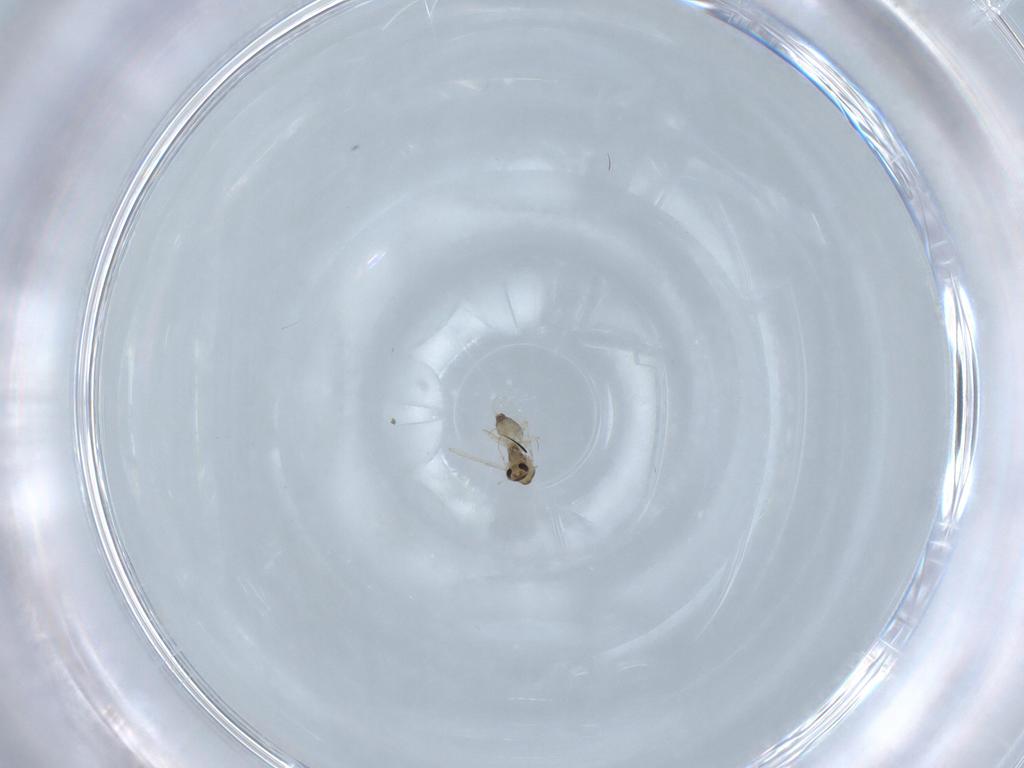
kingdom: Animalia
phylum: Arthropoda
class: Insecta
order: Diptera
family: Chironomidae
